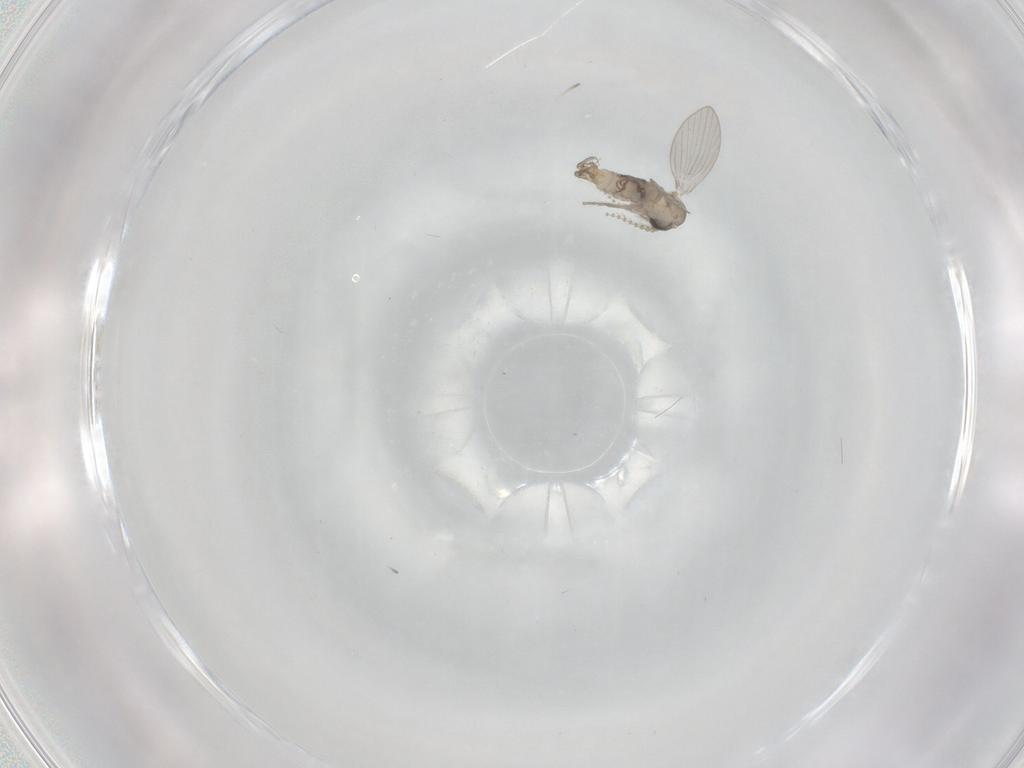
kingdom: Animalia
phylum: Arthropoda
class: Insecta
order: Diptera
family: Psychodidae
